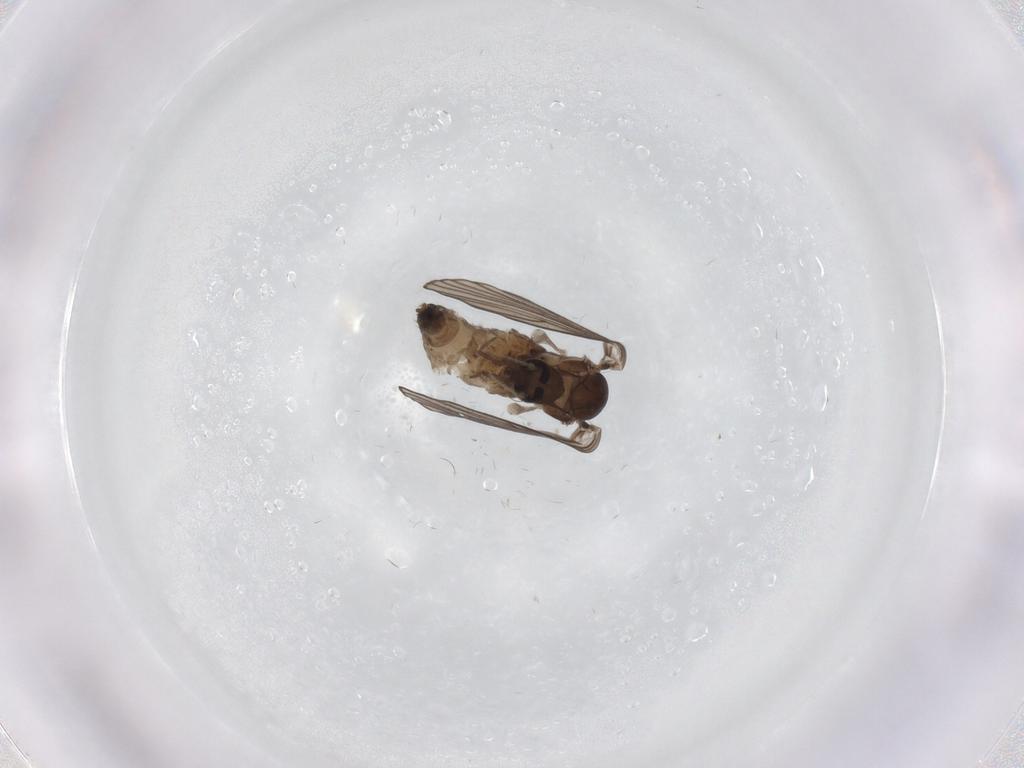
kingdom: Animalia
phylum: Arthropoda
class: Insecta
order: Diptera
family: Psychodidae
